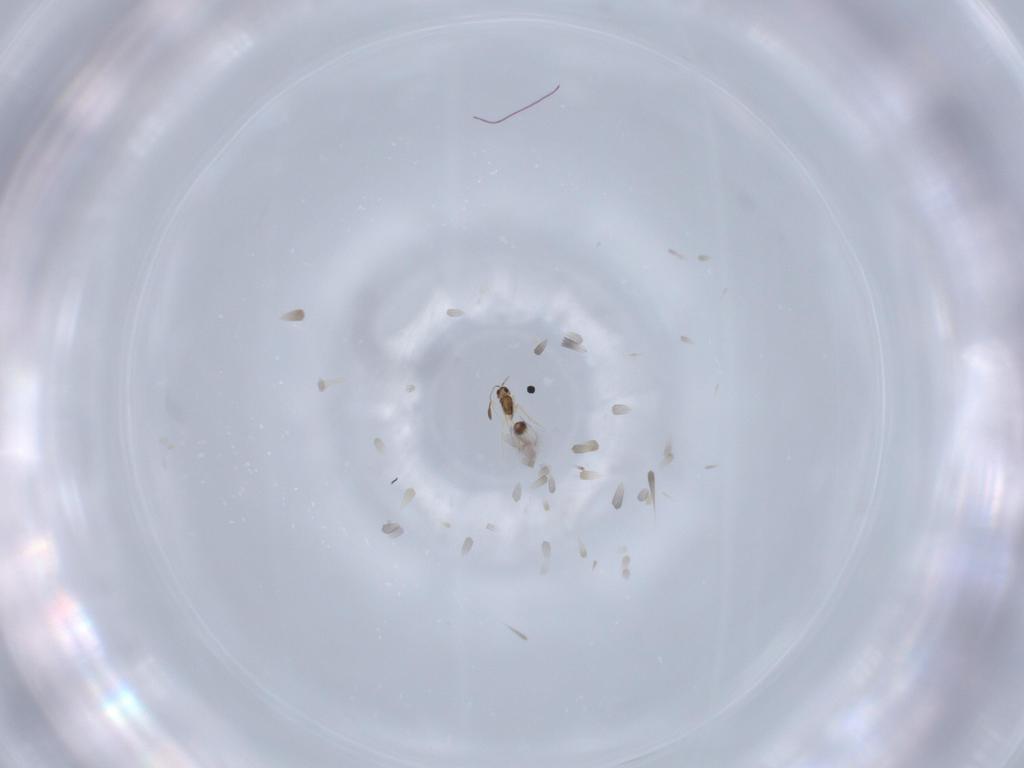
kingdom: Animalia
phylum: Arthropoda
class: Insecta
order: Hymenoptera
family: Mymarommatidae
